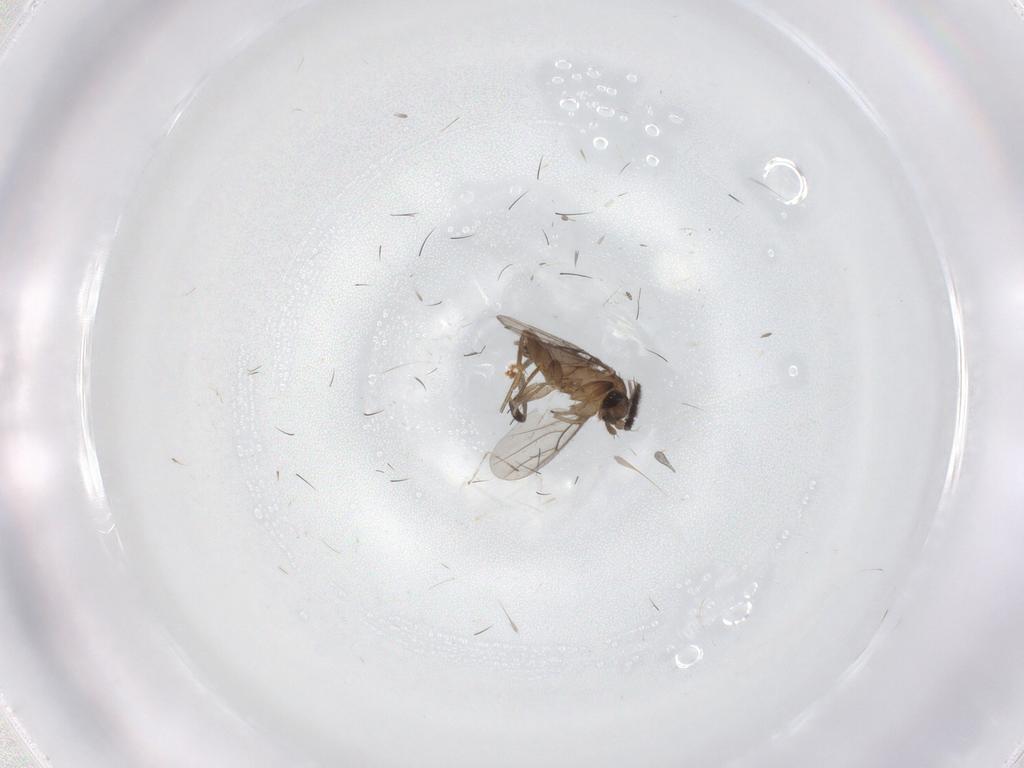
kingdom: Animalia
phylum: Arthropoda
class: Insecta
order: Diptera
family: Sciaridae
